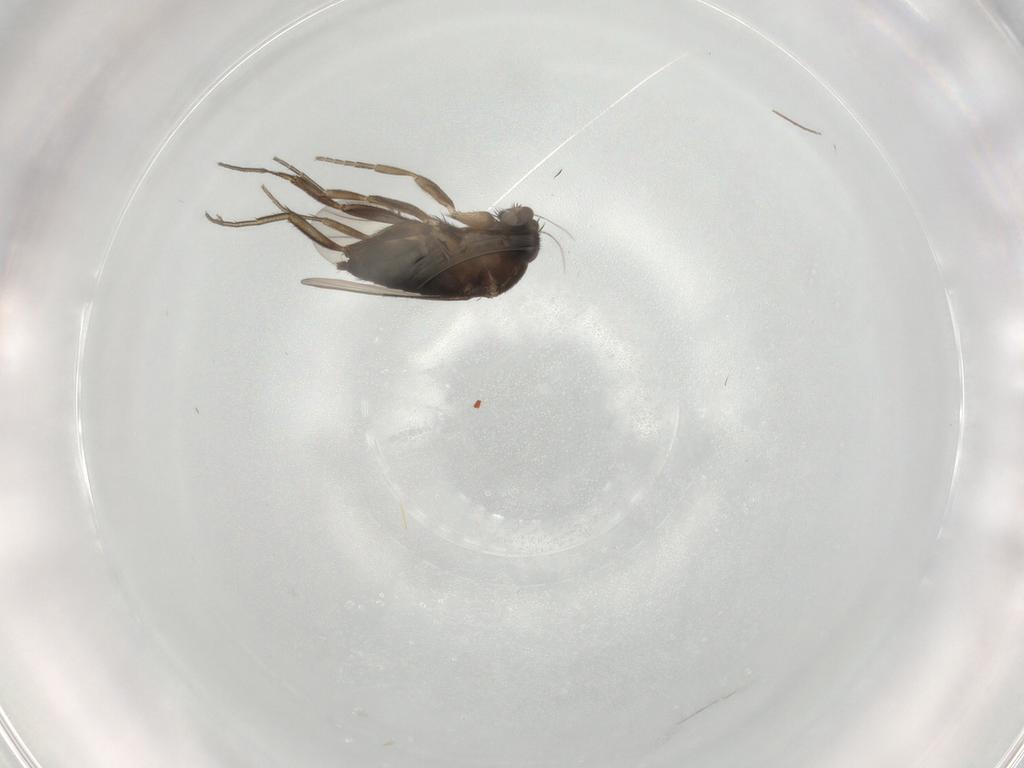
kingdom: Animalia
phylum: Arthropoda
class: Insecta
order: Diptera
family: Phoridae
